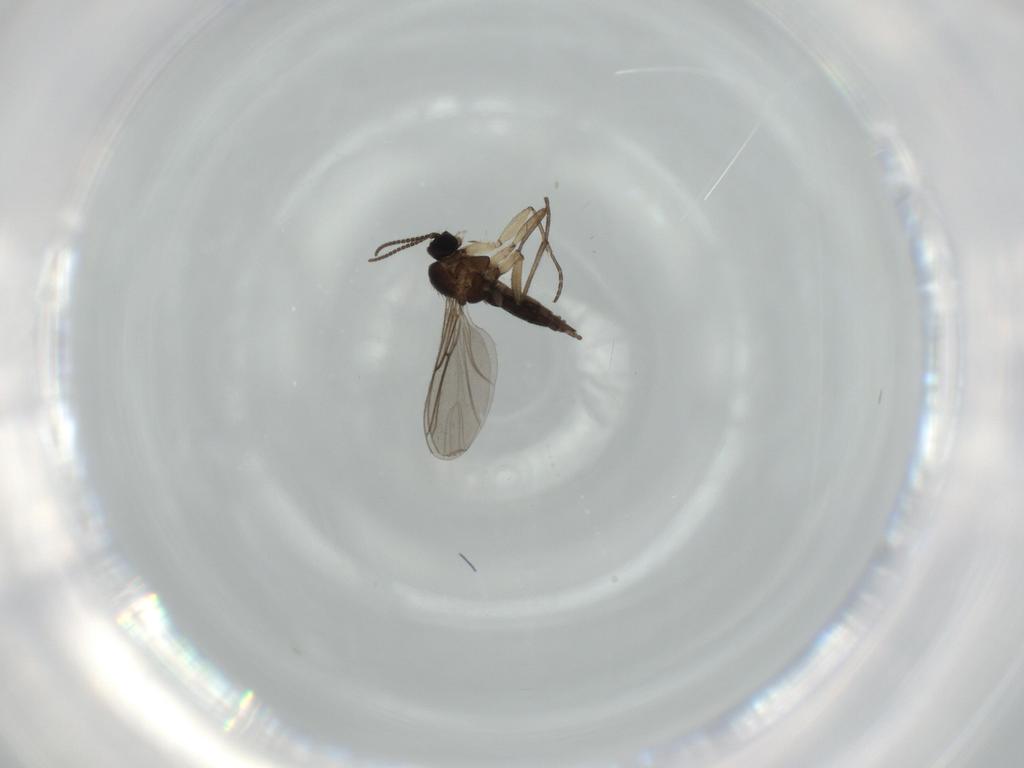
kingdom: Animalia
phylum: Arthropoda
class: Insecta
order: Diptera
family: Sciaridae
